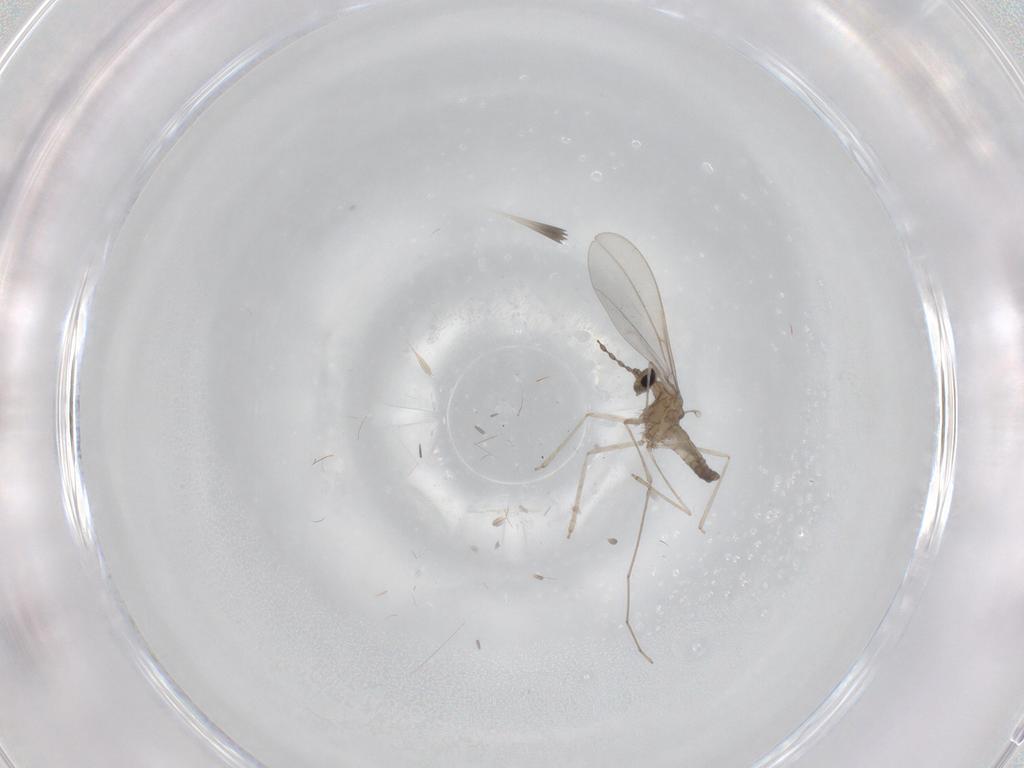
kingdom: Animalia
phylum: Arthropoda
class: Insecta
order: Diptera
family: Cecidomyiidae
